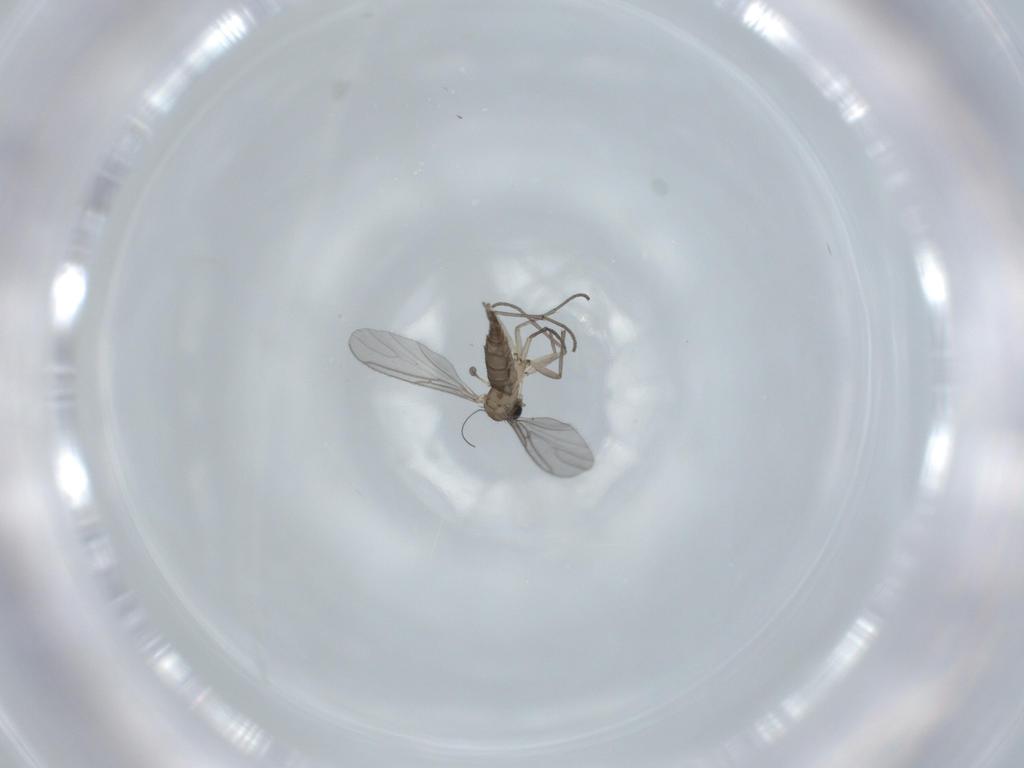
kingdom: Animalia
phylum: Arthropoda
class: Insecta
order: Diptera
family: Sciaridae
